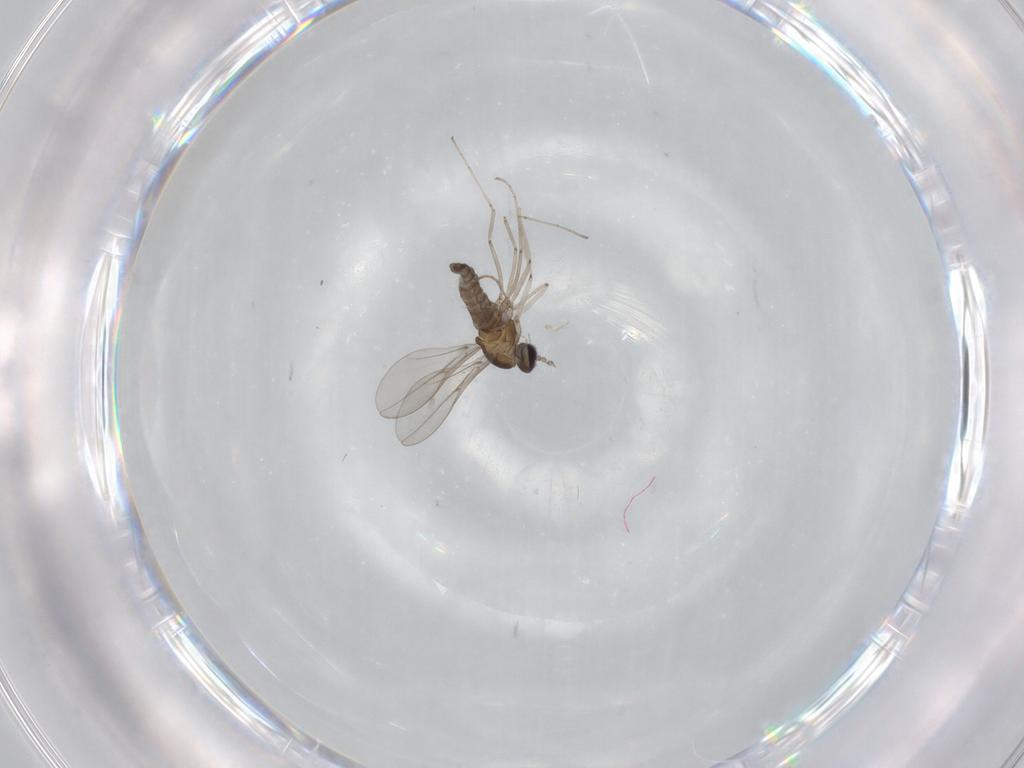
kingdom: Animalia
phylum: Arthropoda
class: Insecta
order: Diptera
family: Cecidomyiidae
